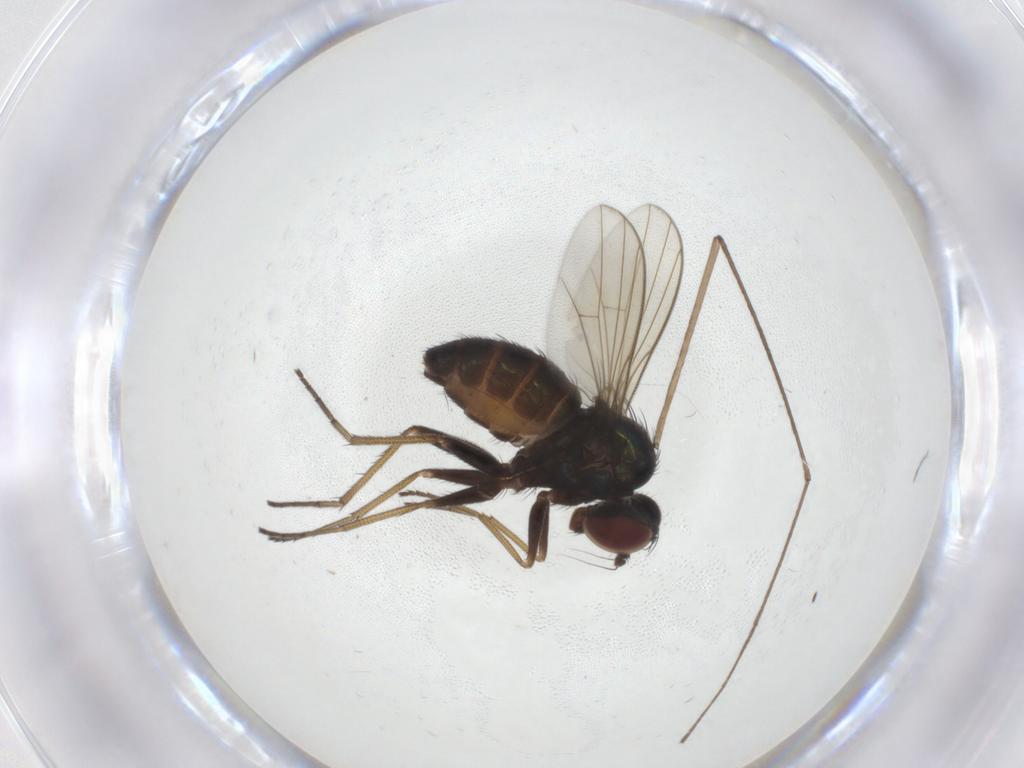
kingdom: Animalia
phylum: Arthropoda
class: Insecta
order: Diptera
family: Dolichopodidae
